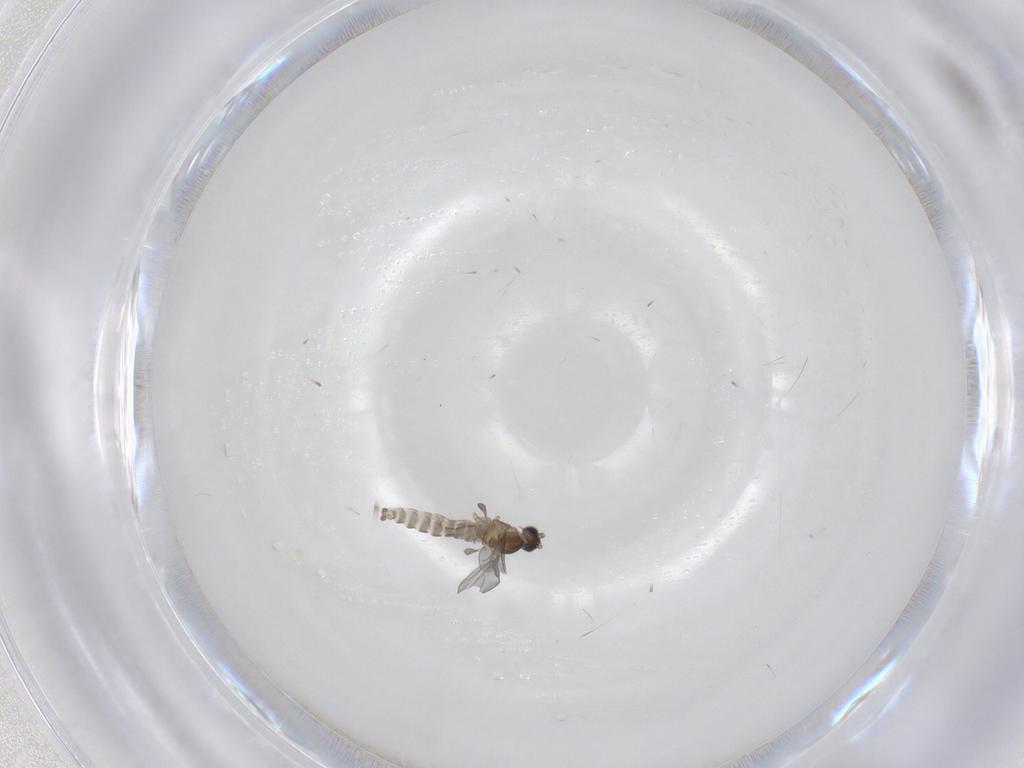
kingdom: Animalia
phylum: Arthropoda
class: Insecta
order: Diptera
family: Cecidomyiidae
